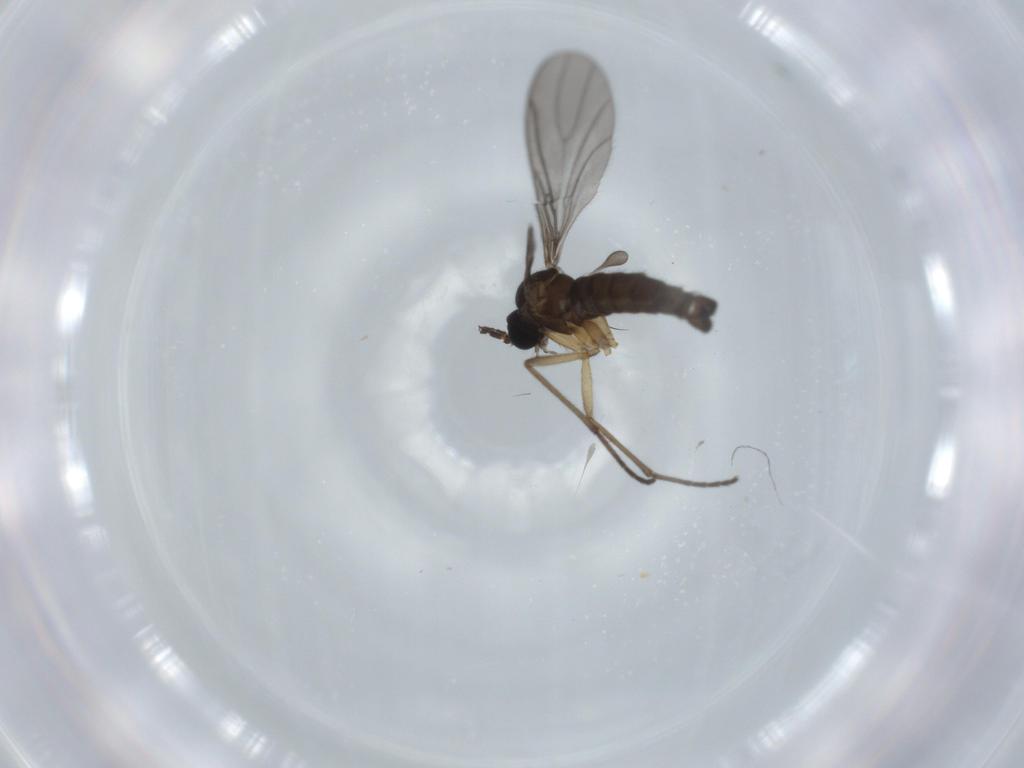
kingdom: Animalia
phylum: Arthropoda
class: Insecta
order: Diptera
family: Sciaridae
